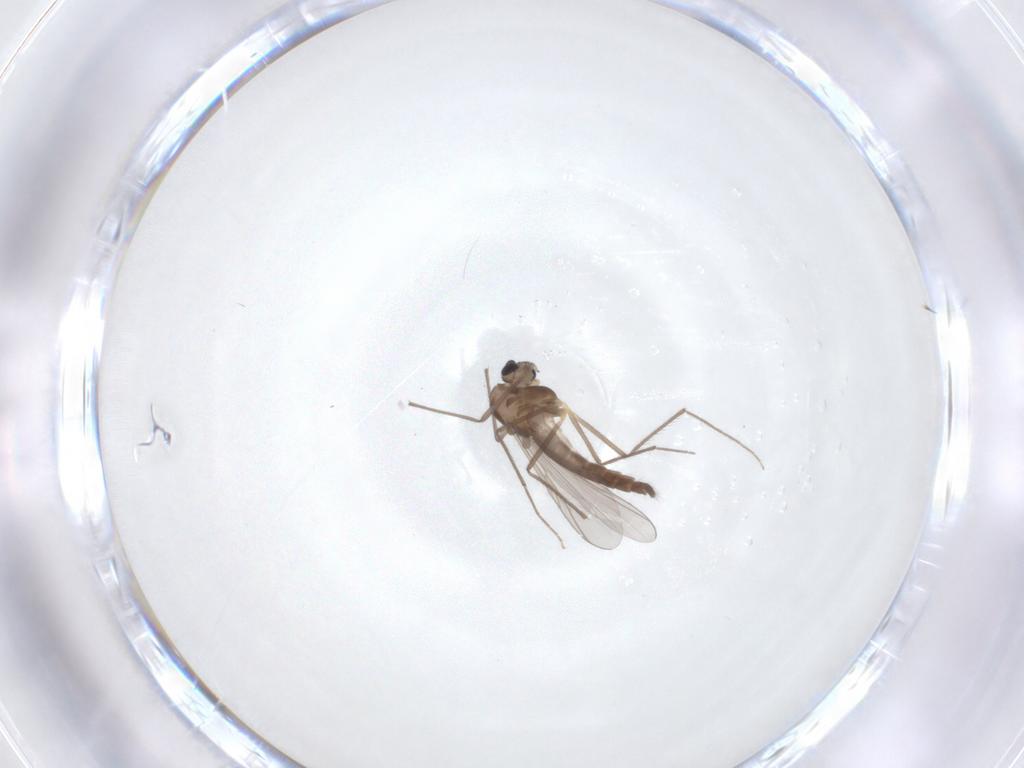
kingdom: Animalia
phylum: Arthropoda
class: Insecta
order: Diptera
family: Chironomidae
